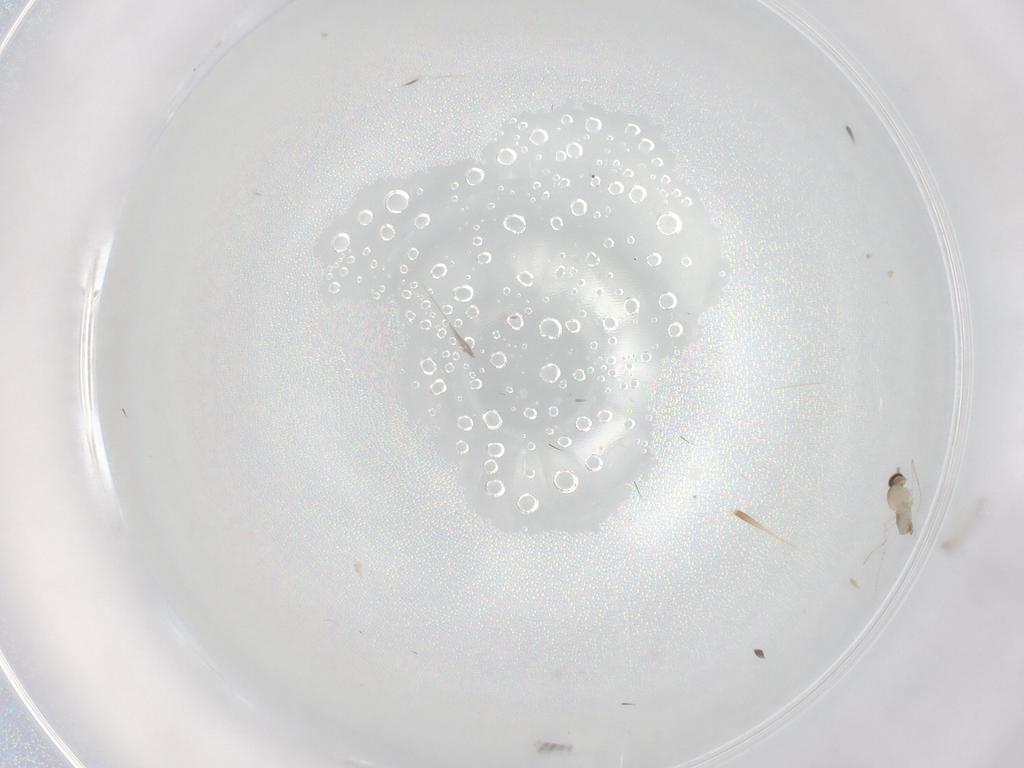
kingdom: Animalia
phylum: Arthropoda
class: Insecta
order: Diptera
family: Cecidomyiidae
